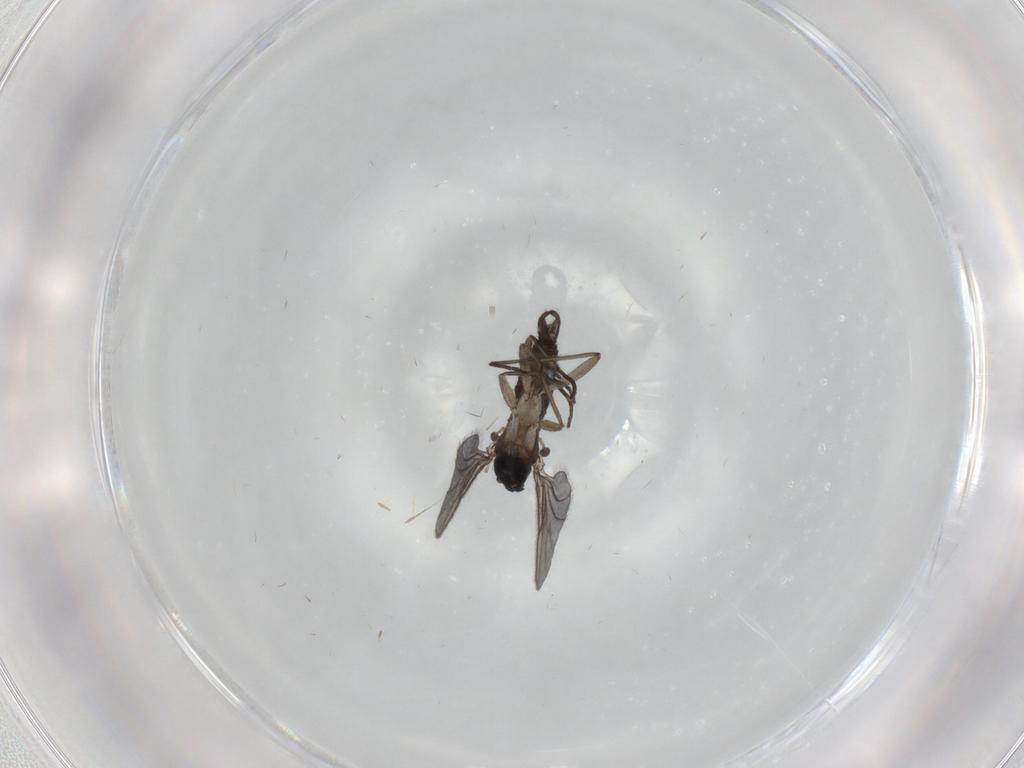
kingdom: Animalia
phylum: Arthropoda
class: Insecta
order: Diptera
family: Sciaridae
